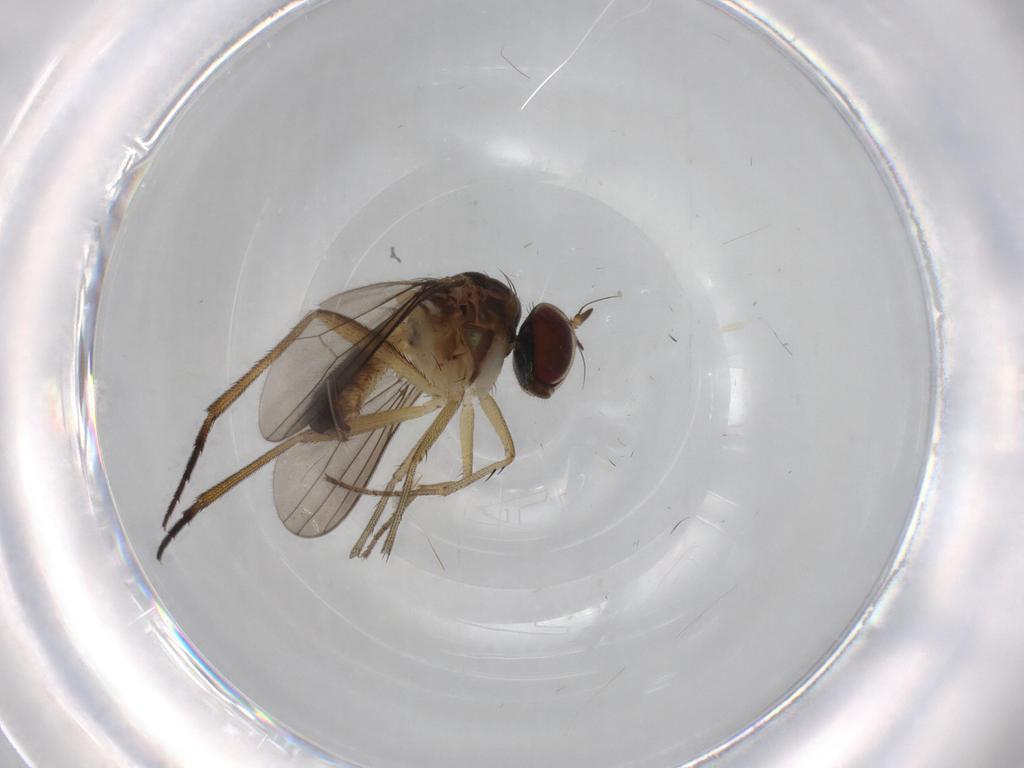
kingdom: Animalia
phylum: Arthropoda
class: Insecta
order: Diptera
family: Dolichopodidae
